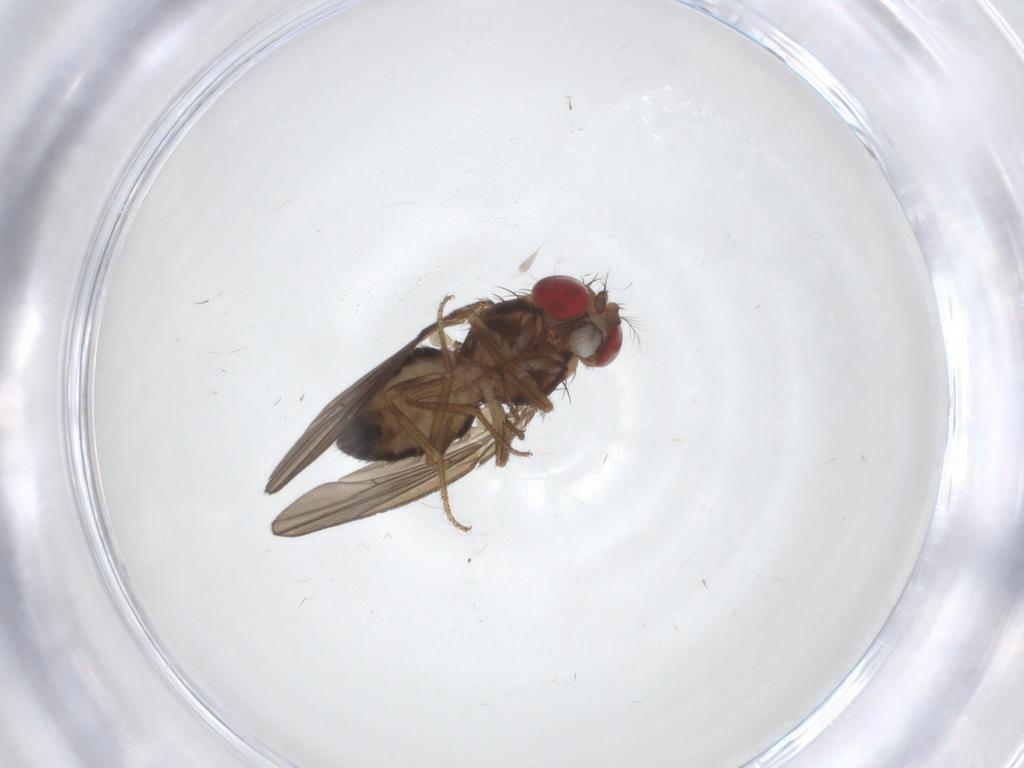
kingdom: Animalia
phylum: Arthropoda
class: Insecta
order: Diptera
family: Drosophilidae
